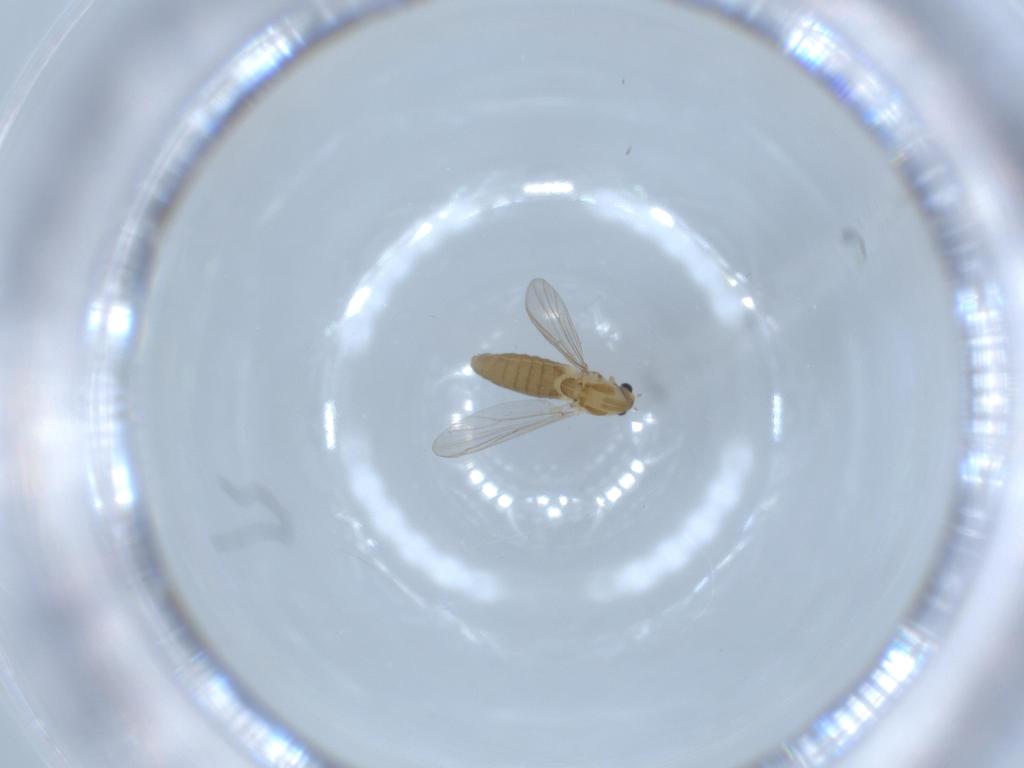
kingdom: Animalia
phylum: Arthropoda
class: Insecta
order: Diptera
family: Chironomidae
